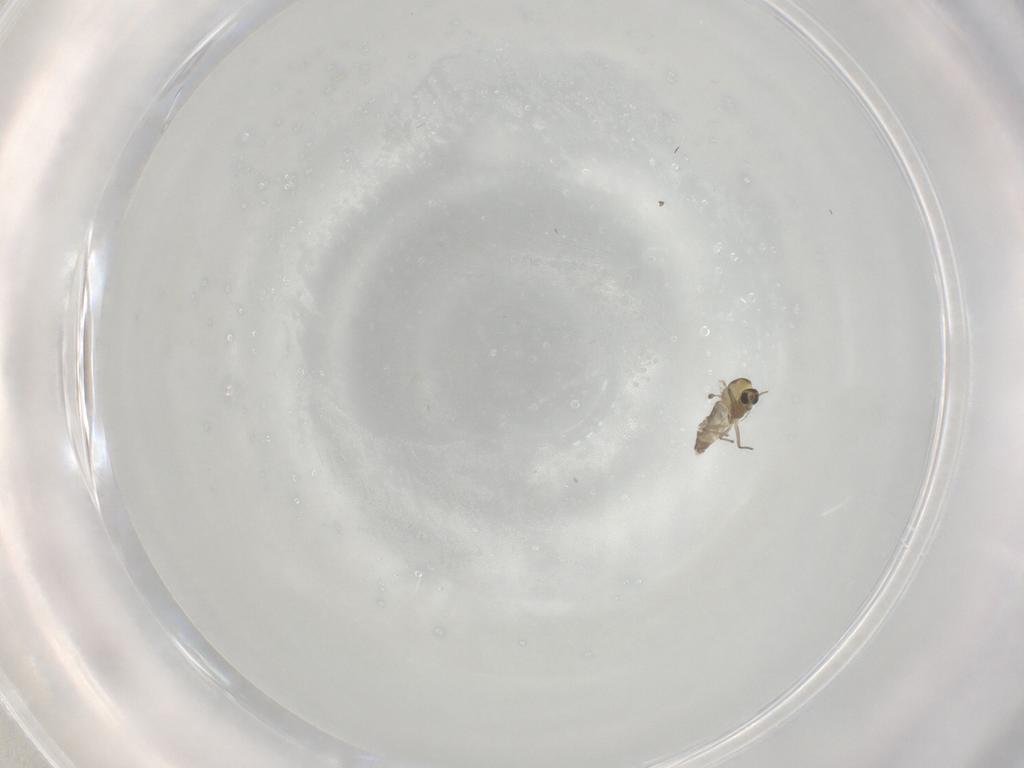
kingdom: Animalia
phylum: Arthropoda
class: Insecta
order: Diptera
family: Chironomidae
